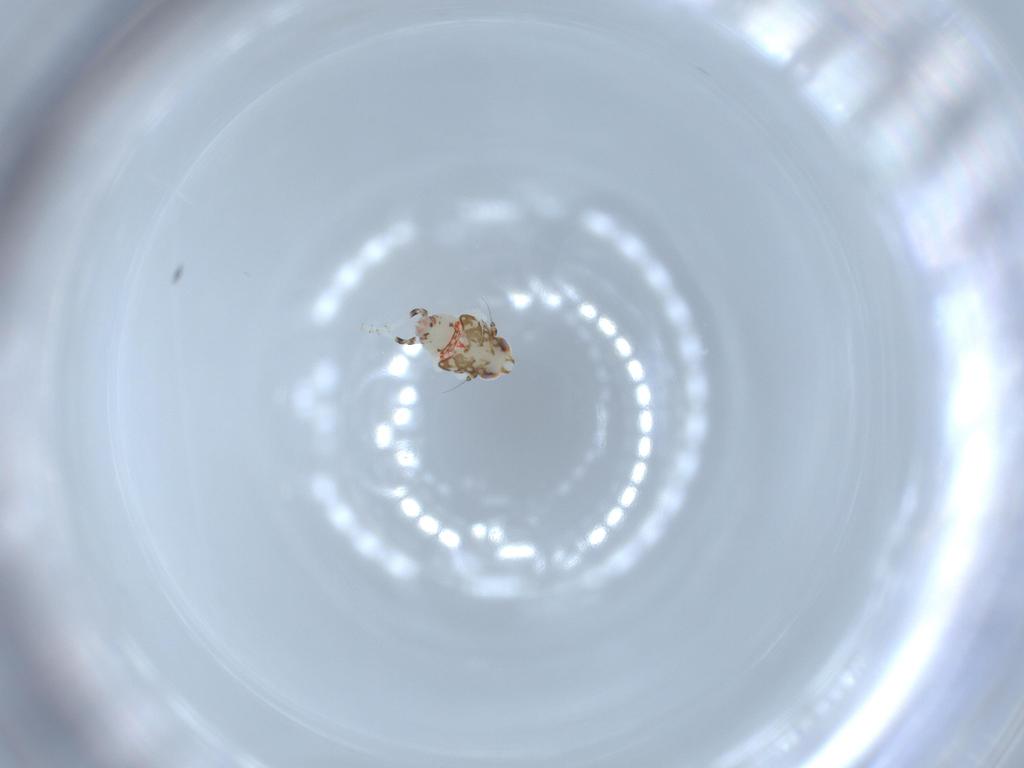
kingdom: Animalia
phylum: Arthropoda
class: Insecta
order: Hemiptera
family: Nogodinidae
